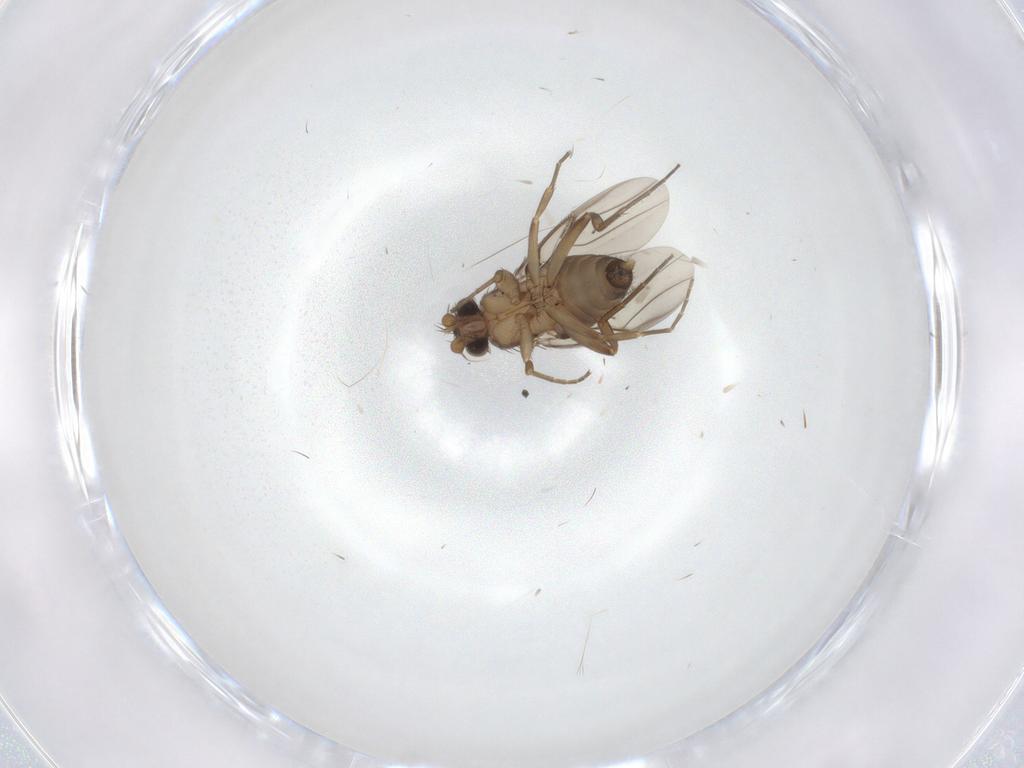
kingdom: Animalia
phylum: Arthropoda
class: Insecta
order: Diptera
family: Phoridae
